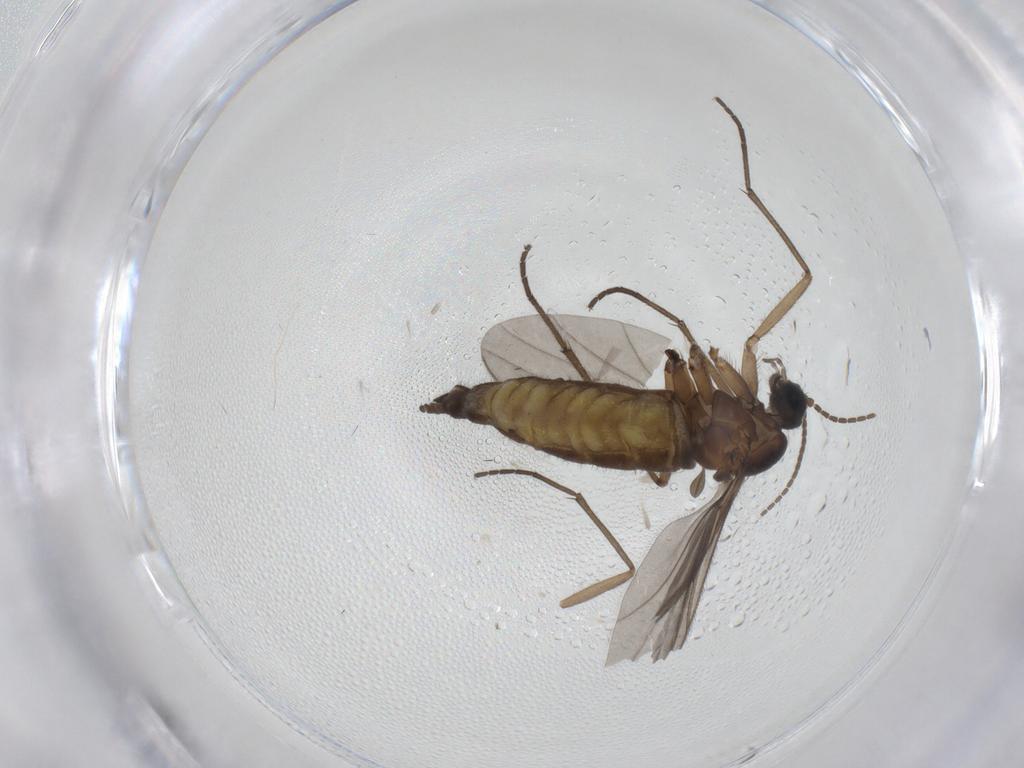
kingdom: Animalia
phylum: Arthropoda
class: Insecta
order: Diptera
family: Sciaridae
